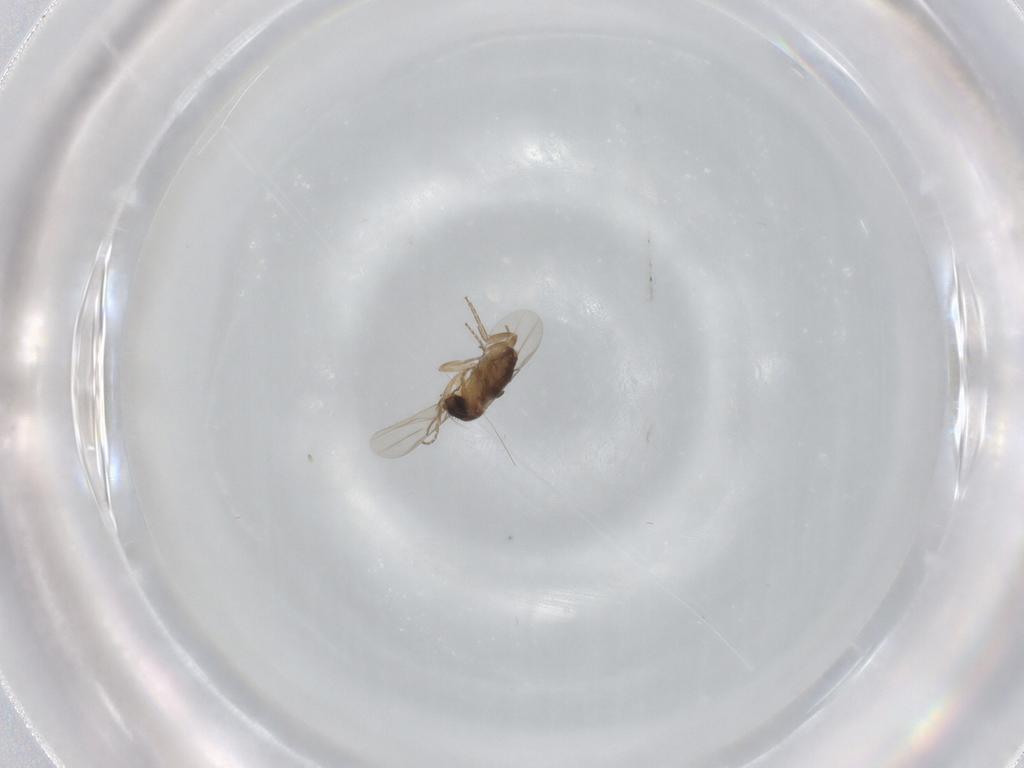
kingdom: Animalia
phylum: Arthropoda
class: Insecta
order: Diptera
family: Phoridae
